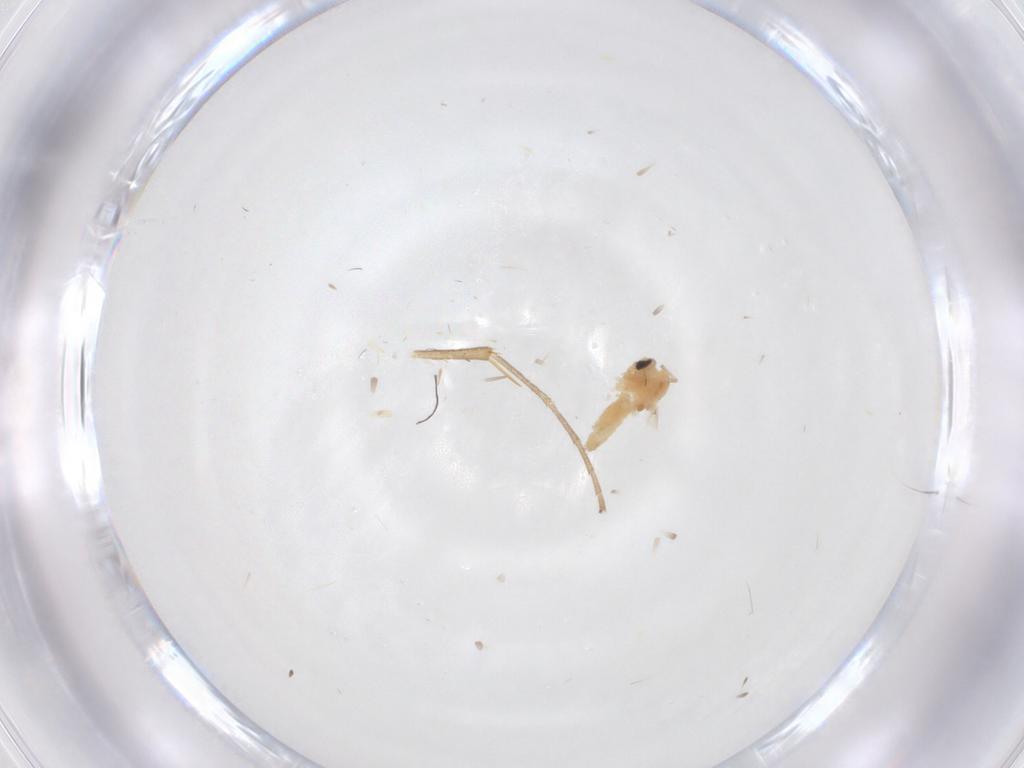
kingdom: Animalia
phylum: Arthropoda
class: Insecta
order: Diptera
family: Mycetophilidae
